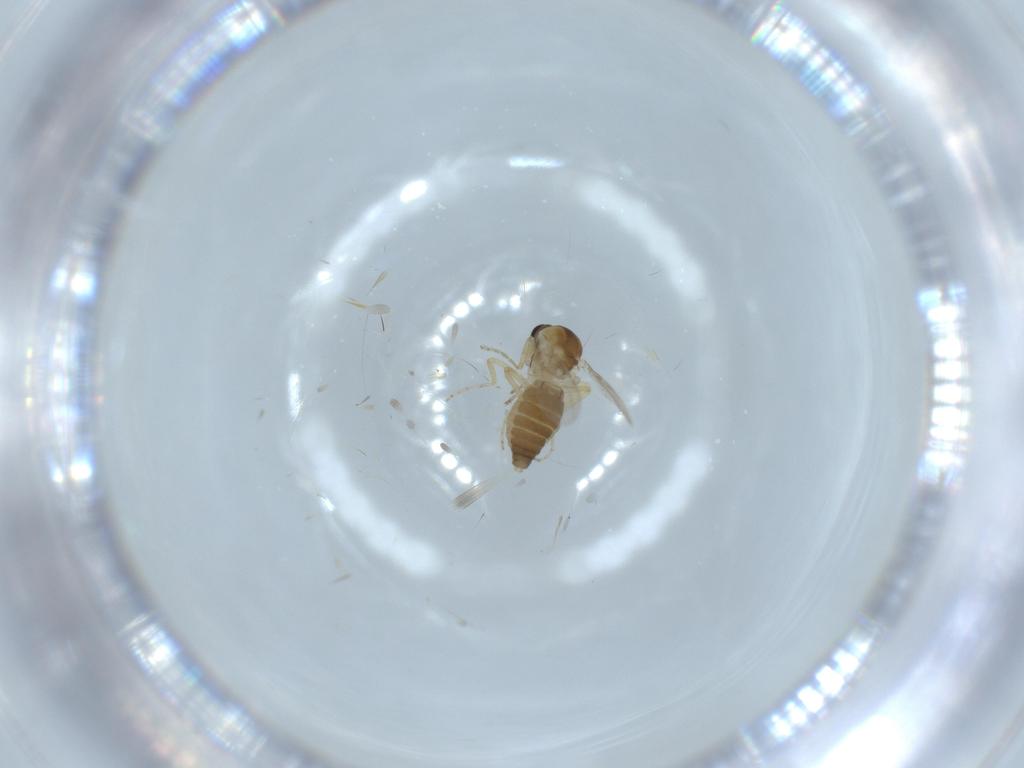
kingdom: Animalia
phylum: Arthropoda
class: Insecta
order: Diptera
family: Ceratopogonidae
